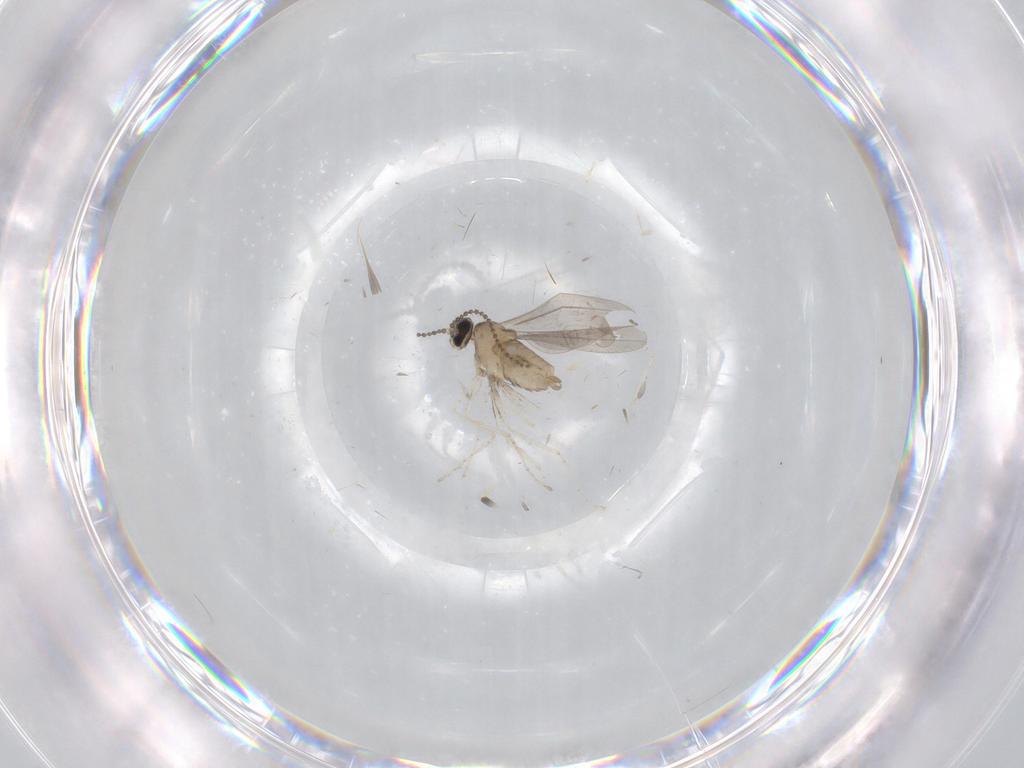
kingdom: Animalia
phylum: Arthropoda
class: Insecta
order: Diptera
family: Cecidomyiidae
